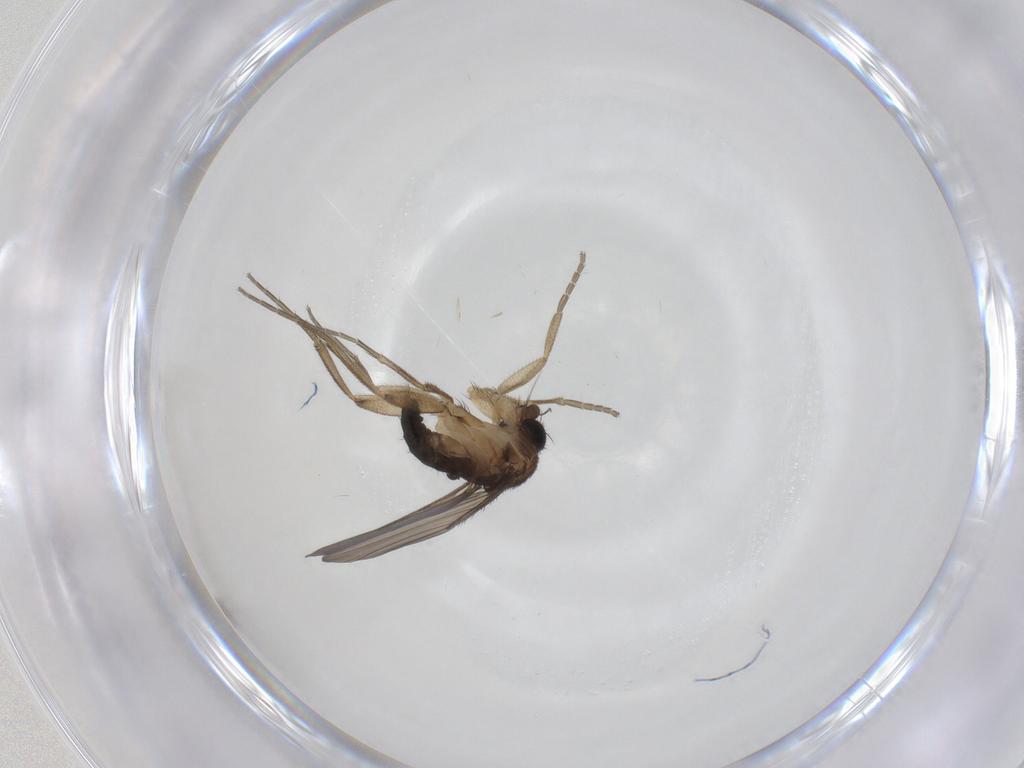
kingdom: Animalia
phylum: Arthropoda
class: Insecta
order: Diptera
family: Phoridae
